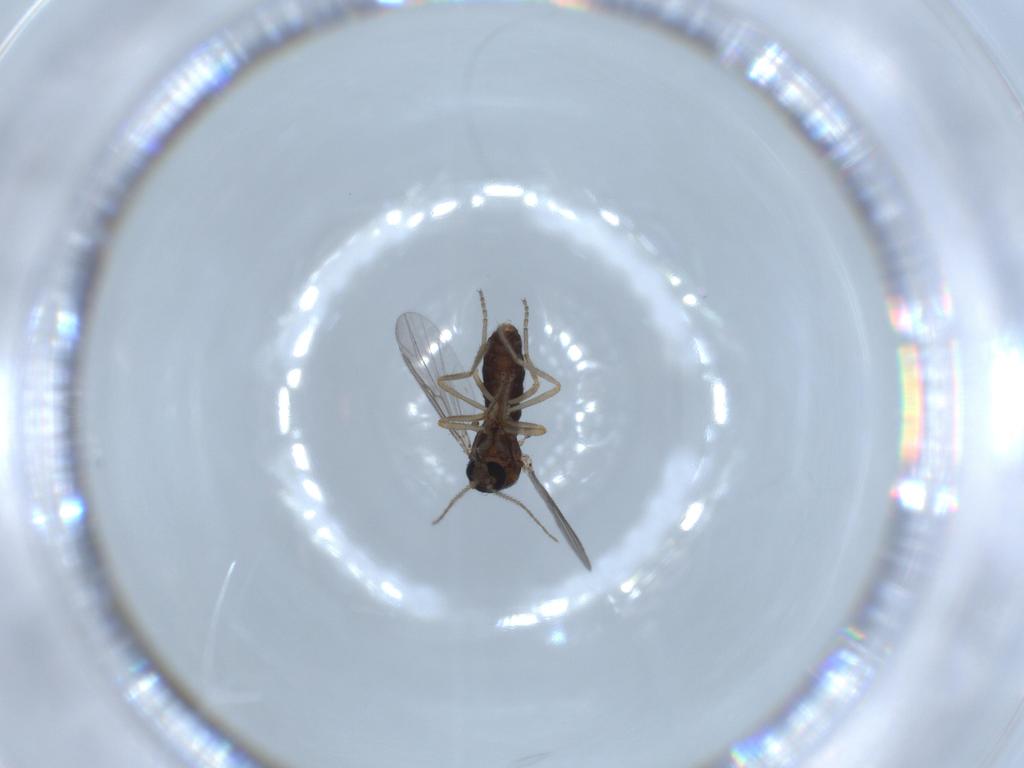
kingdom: Animalia
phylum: Arthropoda
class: Insecta
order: Diptera
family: Ceratopogonidae
